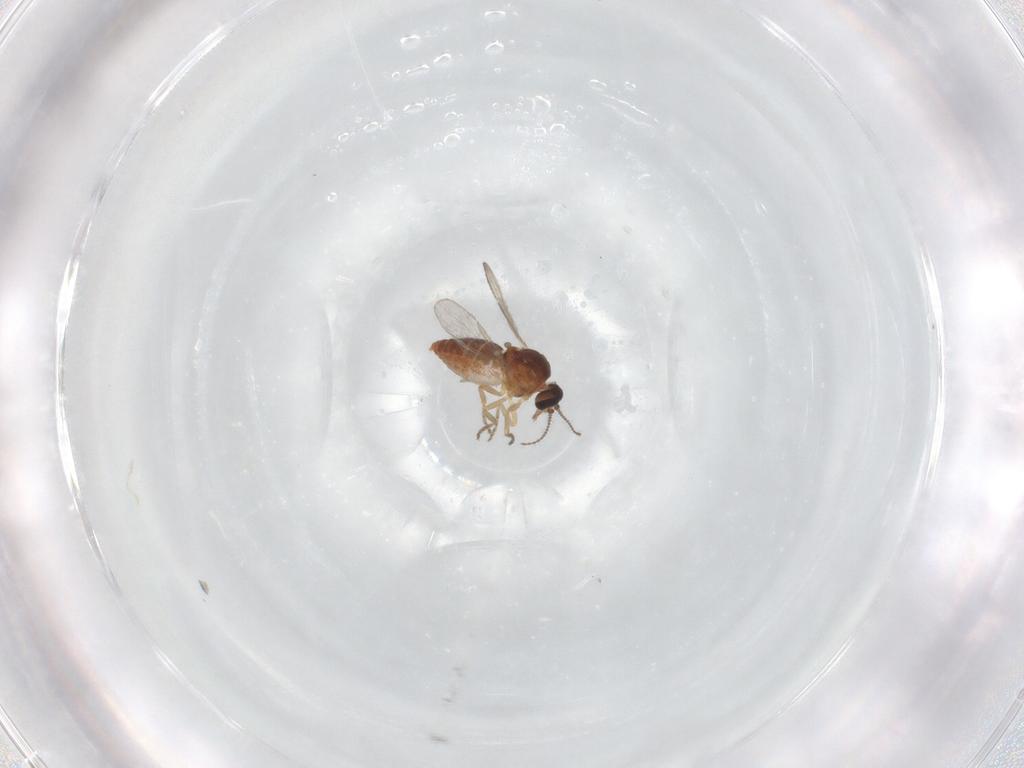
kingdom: Animalia
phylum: Arthropoda
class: Insecta
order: Diptera
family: Ceratopogonidae
